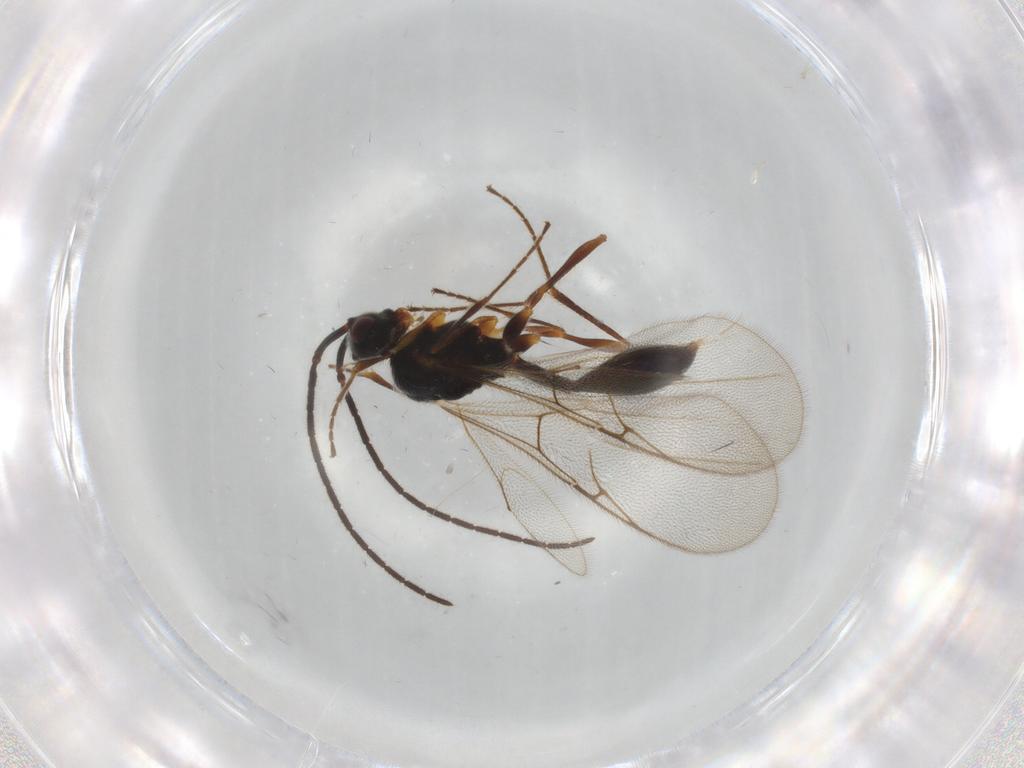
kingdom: Animalia
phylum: Arthropoda
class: Insecta
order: Hymenoptera
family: Diapriidae
